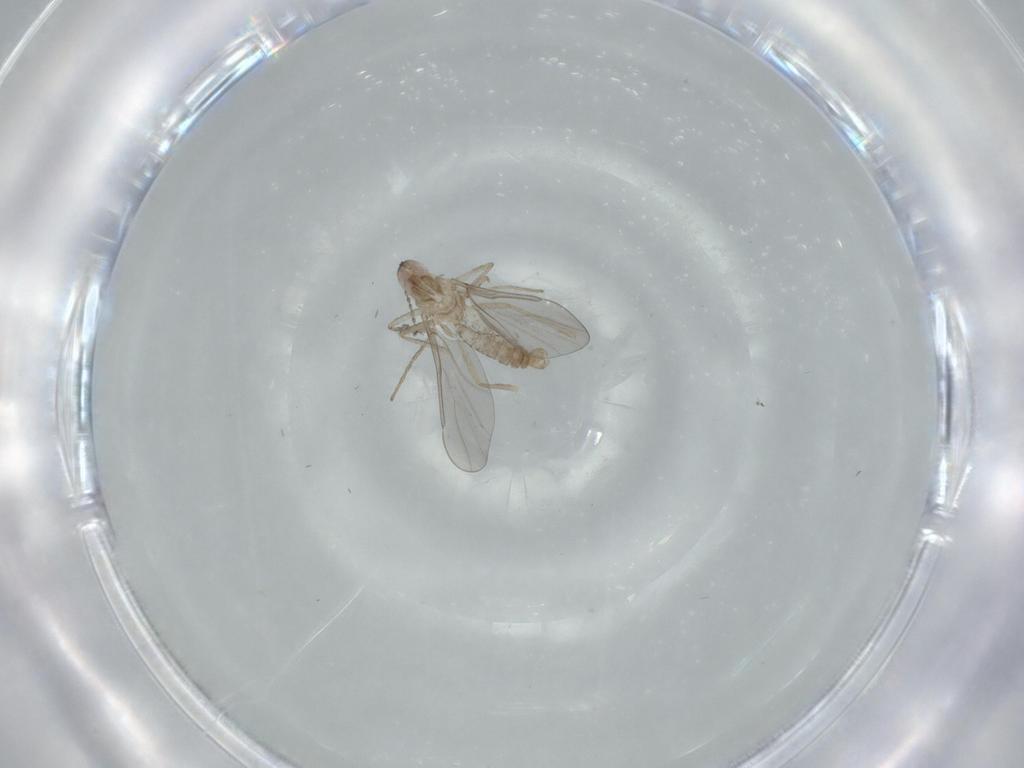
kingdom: Animalia
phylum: Arthropoda
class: Insecta
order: Diptera
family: Cecidomyiidae
